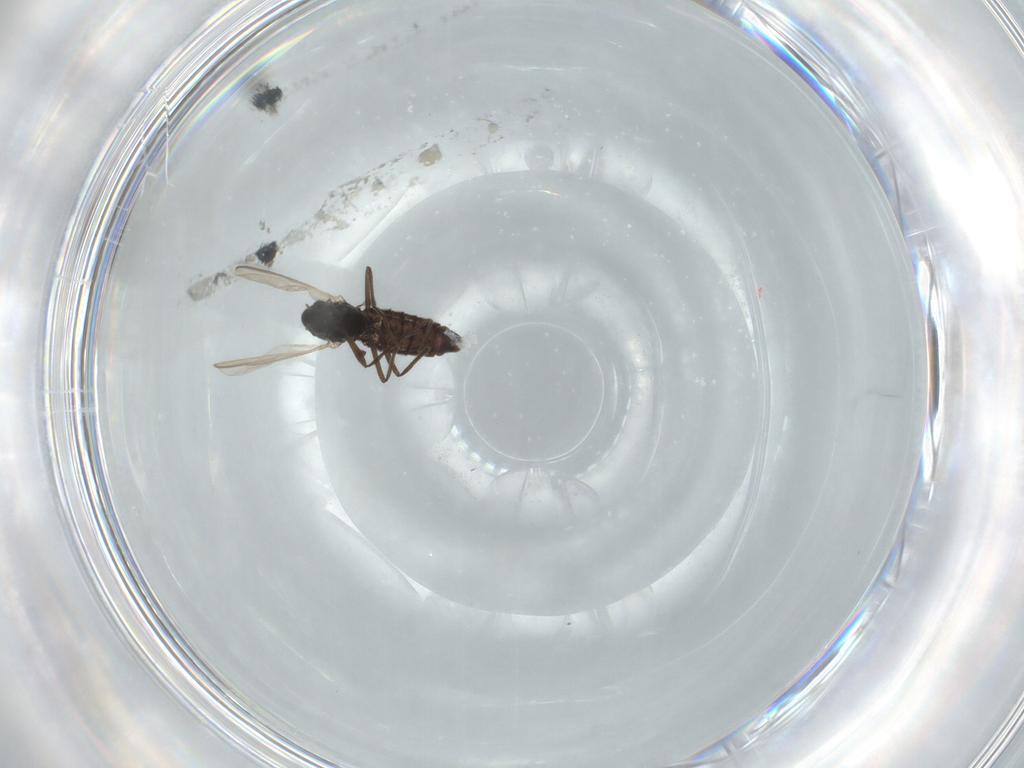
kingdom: Animalia
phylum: Arthropoda
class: Insecta
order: Diptera
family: Chironomidae
